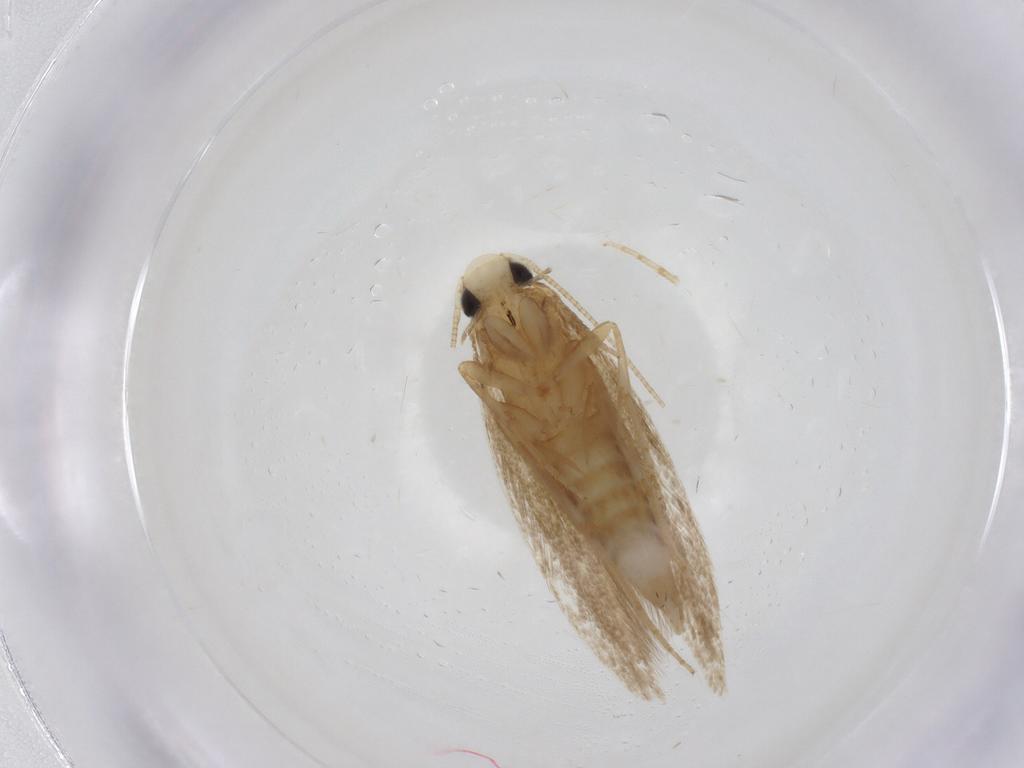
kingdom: Animalia
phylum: Arthropoda
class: Insecta
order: Lepidoptera
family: Tineidae
